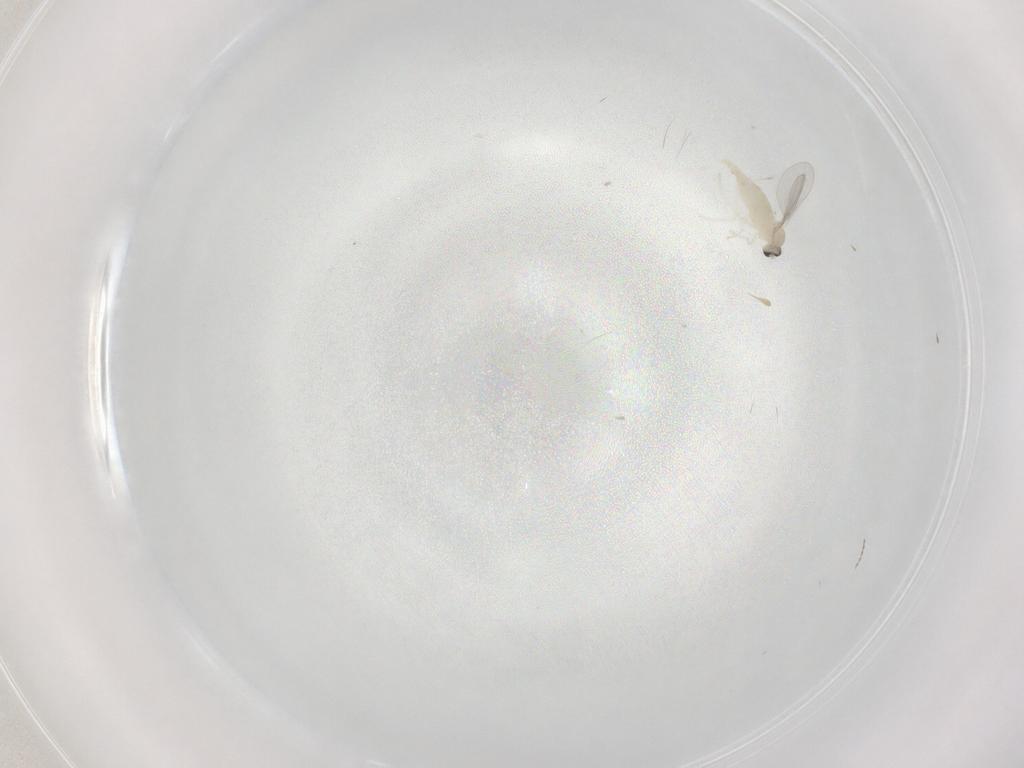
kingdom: Animalia
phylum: Arthropoda
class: Insecta
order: Diptera
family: Cecidomyiidae
